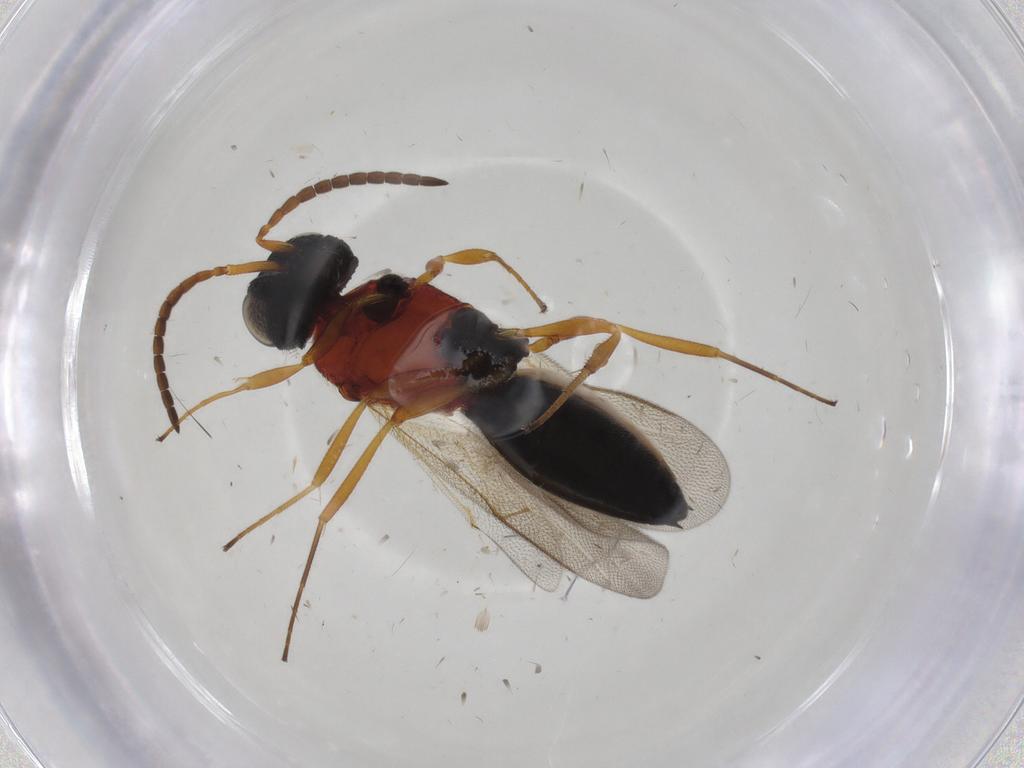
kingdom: Animalia
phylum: Arthropoda
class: Insecta
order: Hymenoptera
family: Scelionidae
